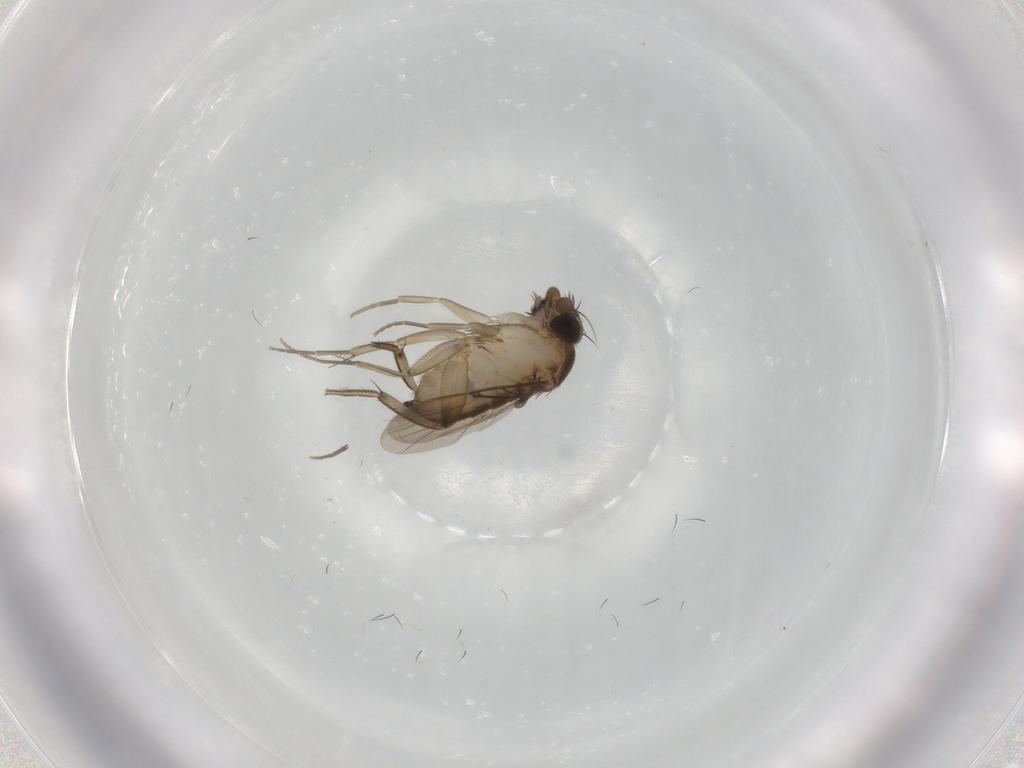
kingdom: Animalia
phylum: Arthropoda
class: Insecta
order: Diptera
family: Phoridae
